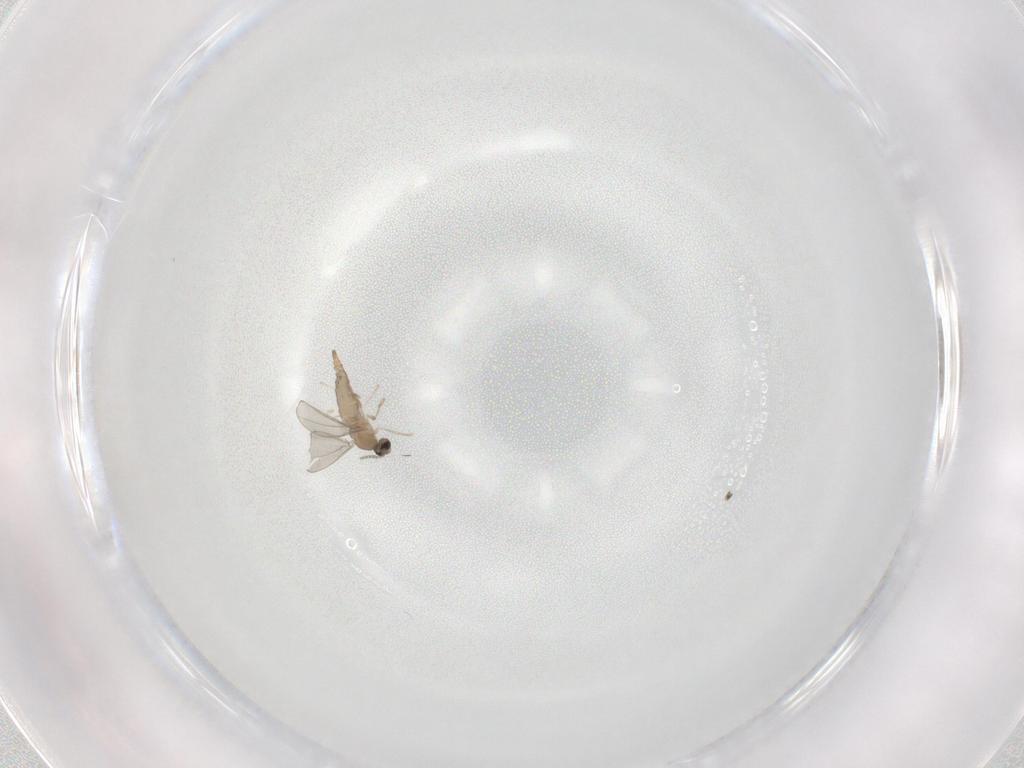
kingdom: Animalia
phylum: Arthropoda
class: Insecta
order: Diptera
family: Cecidomyiidae
